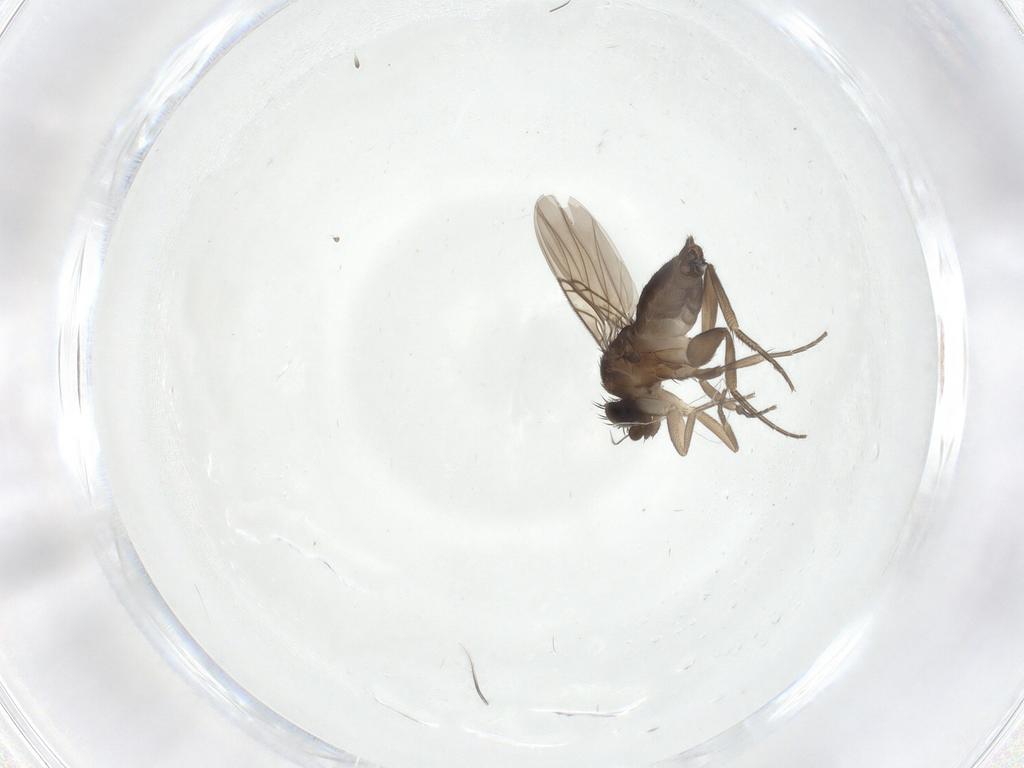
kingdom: Animalia
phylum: Arthropoda
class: Insecta
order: Diptera
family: Phoridae
